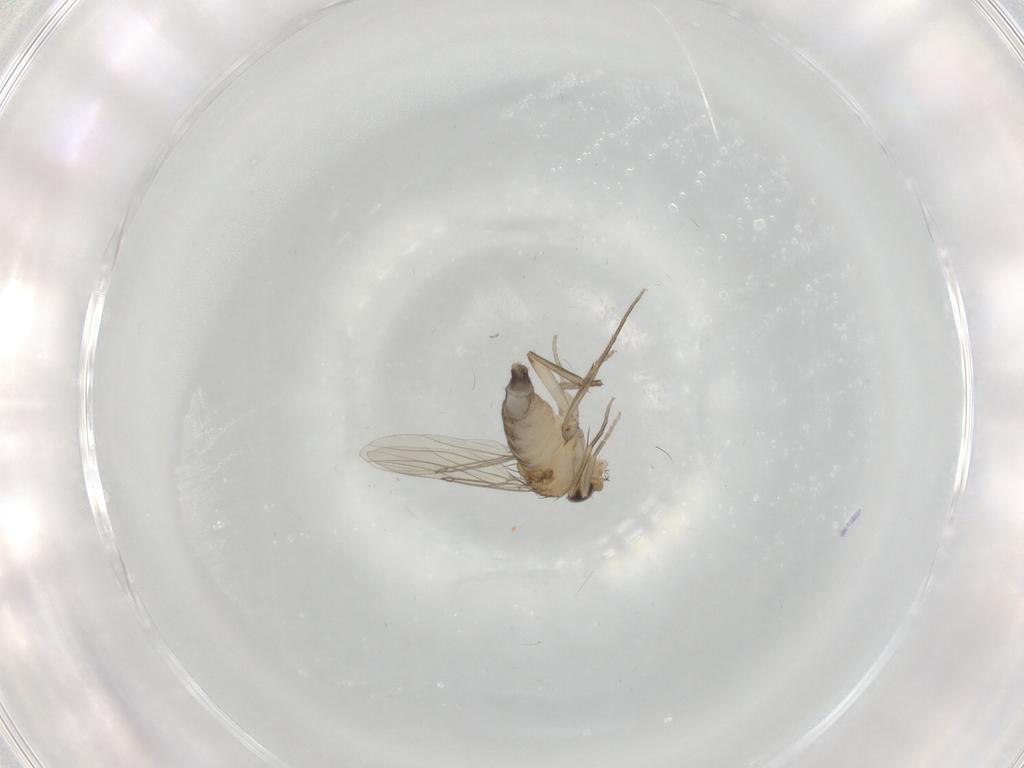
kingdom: Animalia
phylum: Arthropoda
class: Insecta
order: Diptera
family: Phoridae
